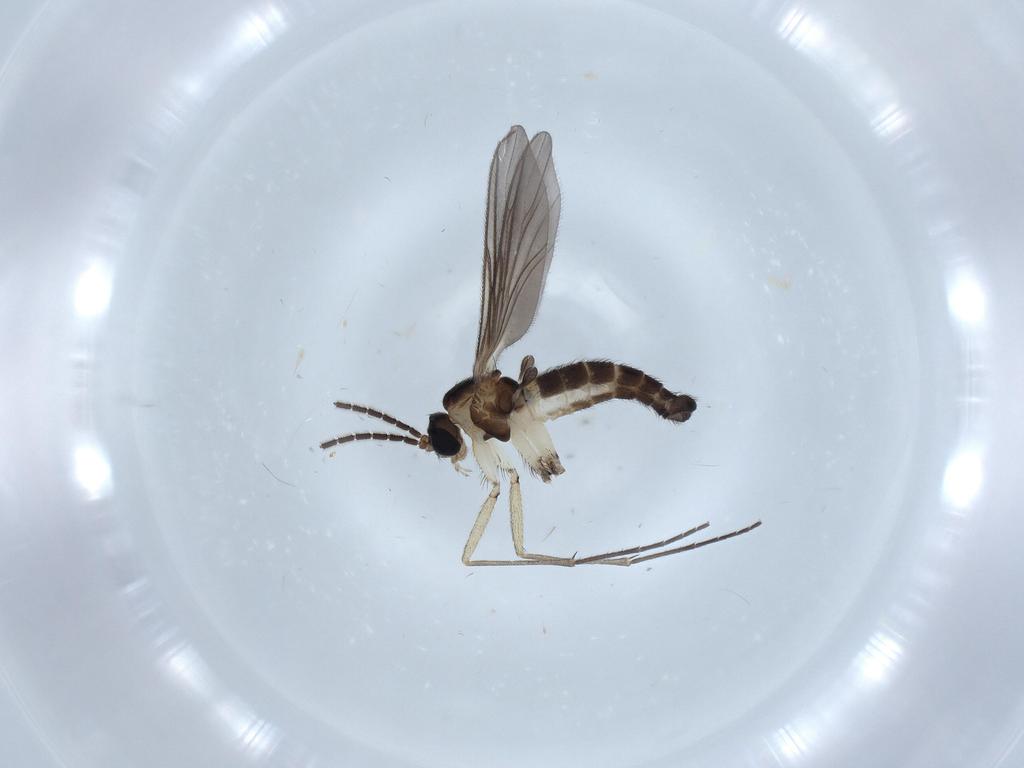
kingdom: Animalia
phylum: Arthropoda
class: Insecta
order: Diptera
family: Sciaridae
